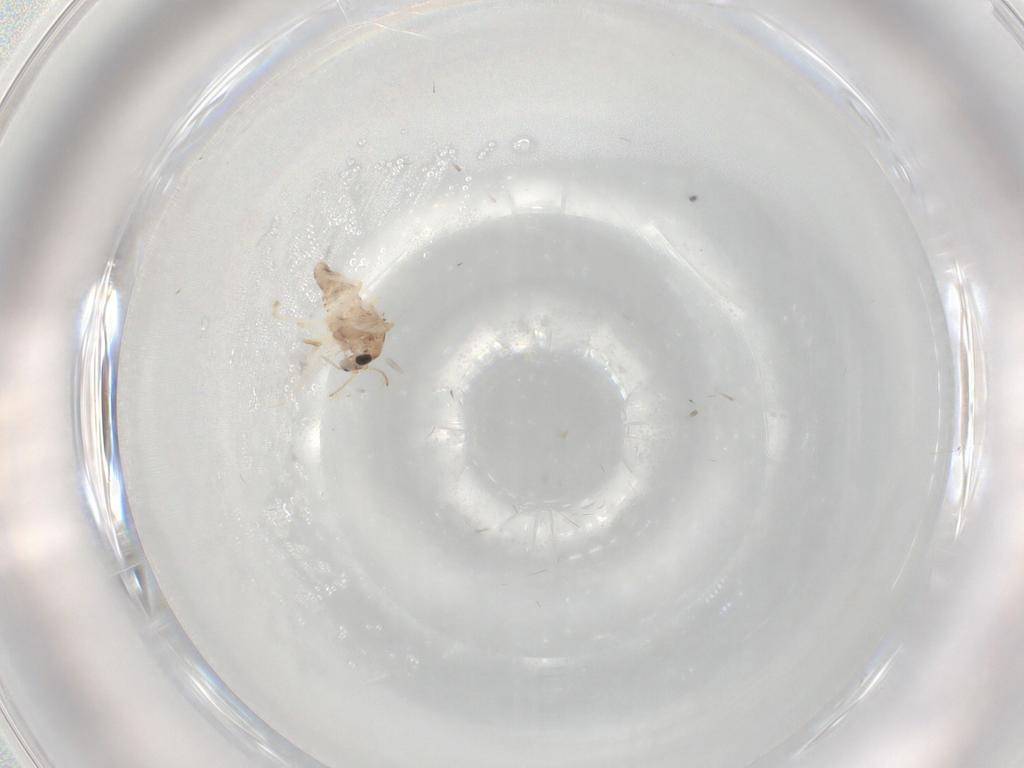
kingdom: Animalia
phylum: Arthropoda
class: Insecta
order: Diptera
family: Chironomidae
